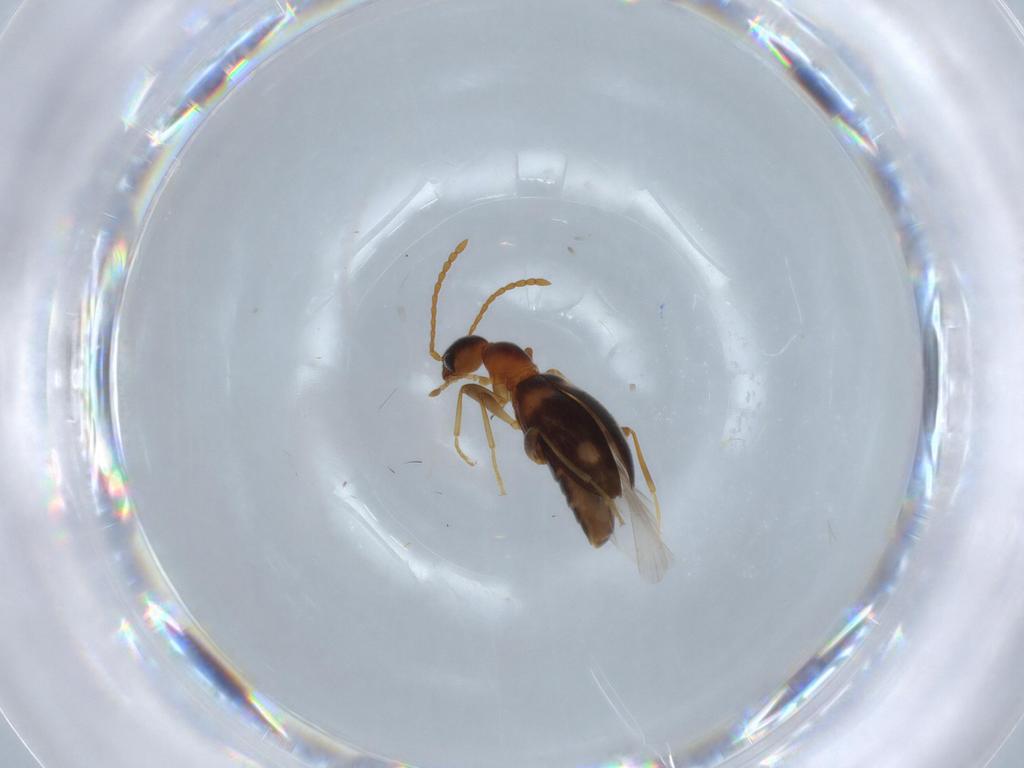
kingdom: Animalia
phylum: Arthropoda
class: Insecta
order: Coleoptera
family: Anthicidae
